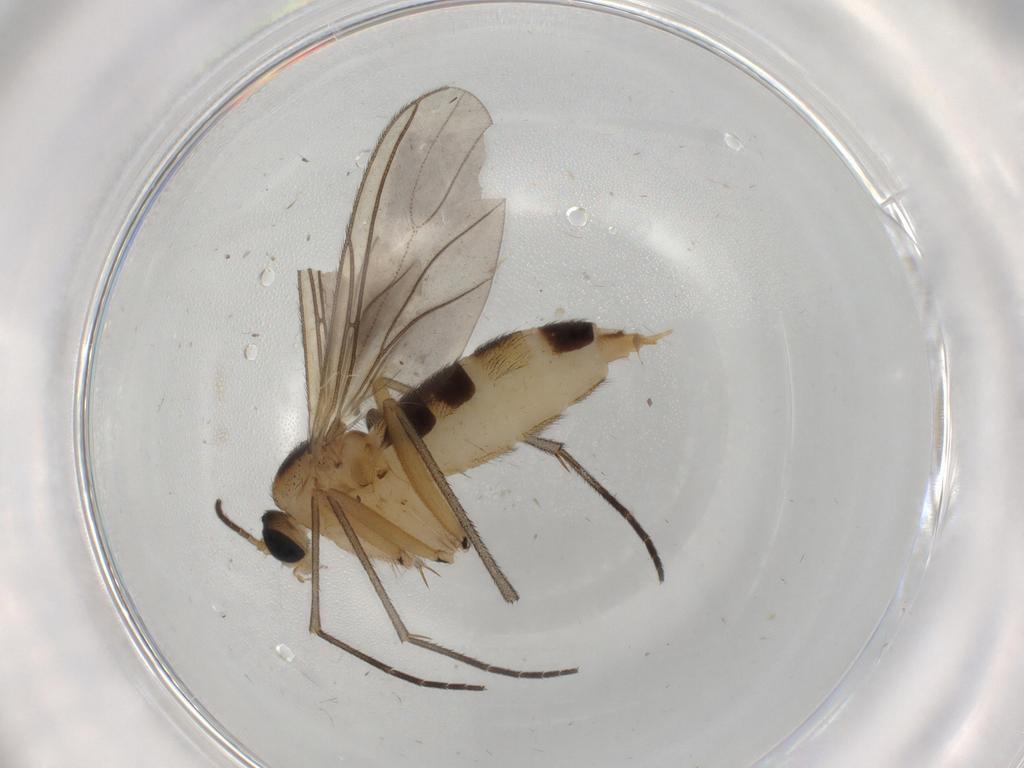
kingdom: Animalia
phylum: Arthropoda
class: Insecta
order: Diptera
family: Sciaridae
